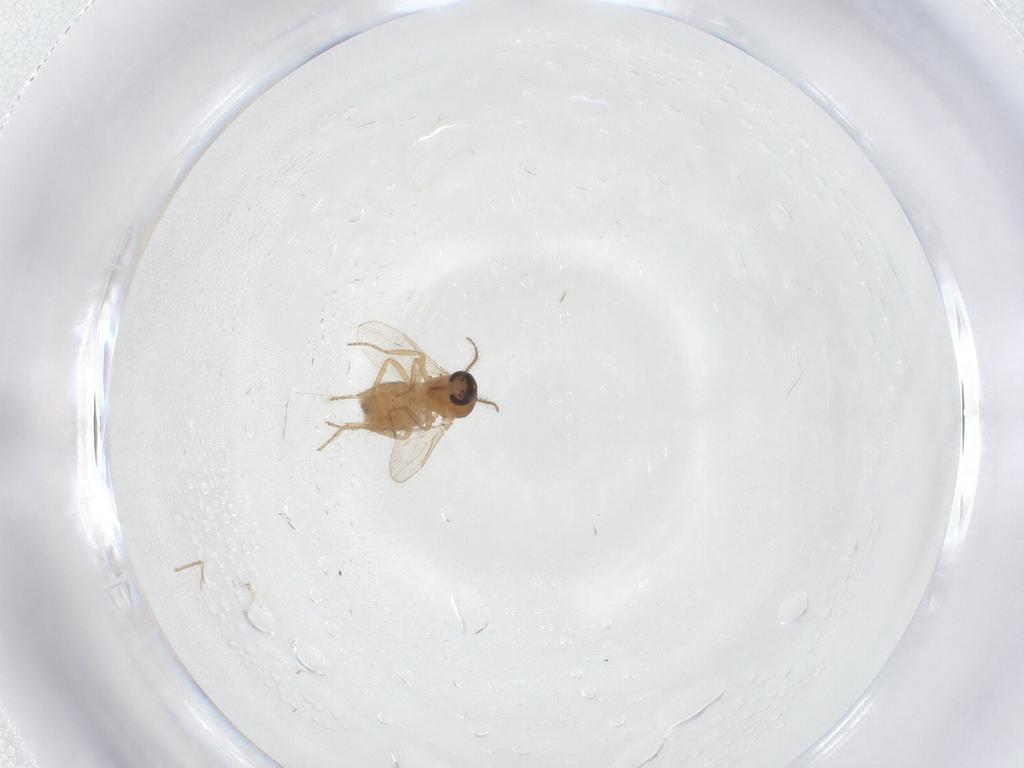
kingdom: Animalia
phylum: Arthropoda
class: Insecta
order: Diptera
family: Ceratopogonidae
